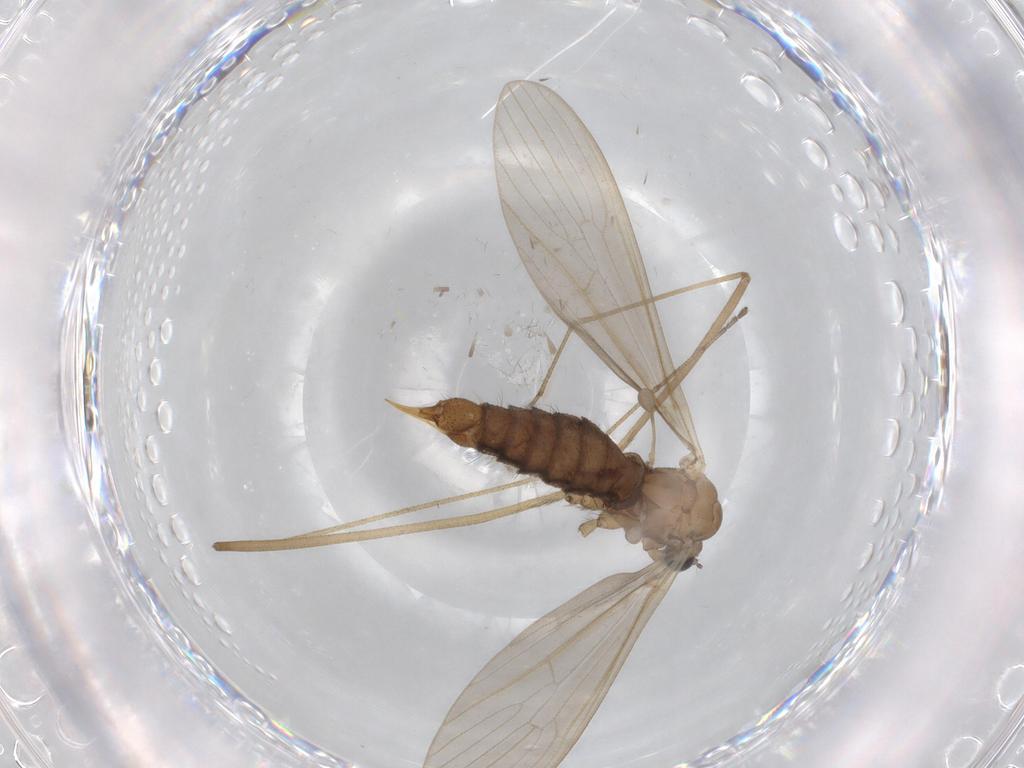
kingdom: Animalia
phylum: Arthropoda
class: Insecta
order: Diptera
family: Limoniidae
